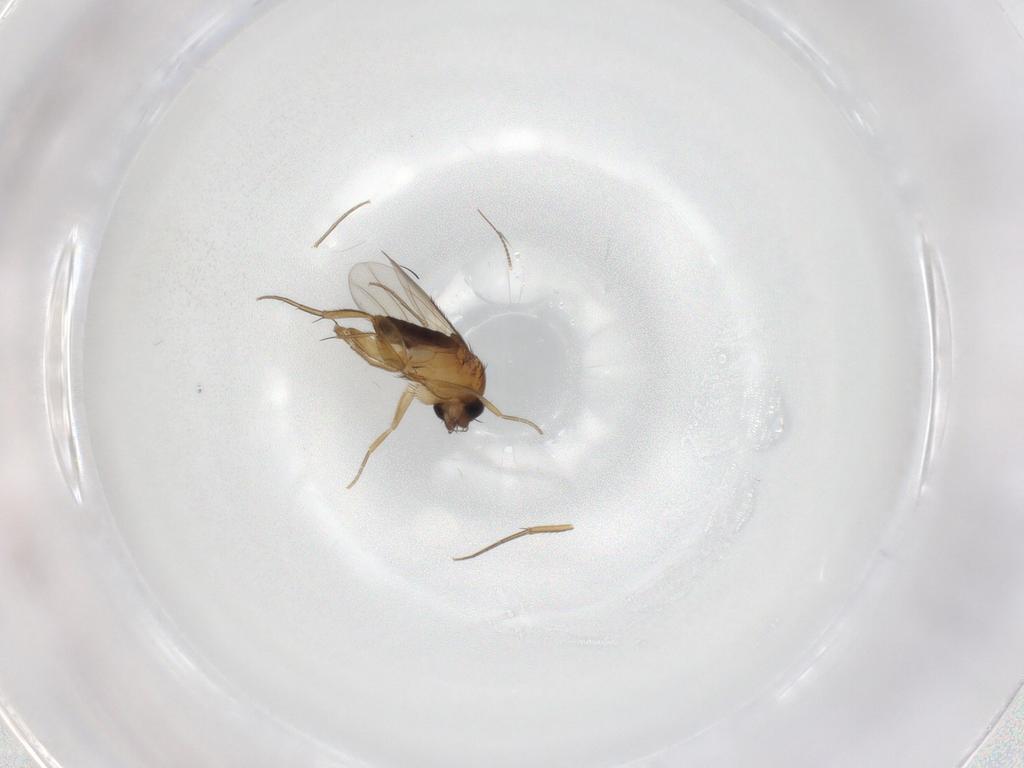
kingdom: Animalia
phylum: Arthropoda
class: Insecta
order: Diptera
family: Phoridae
